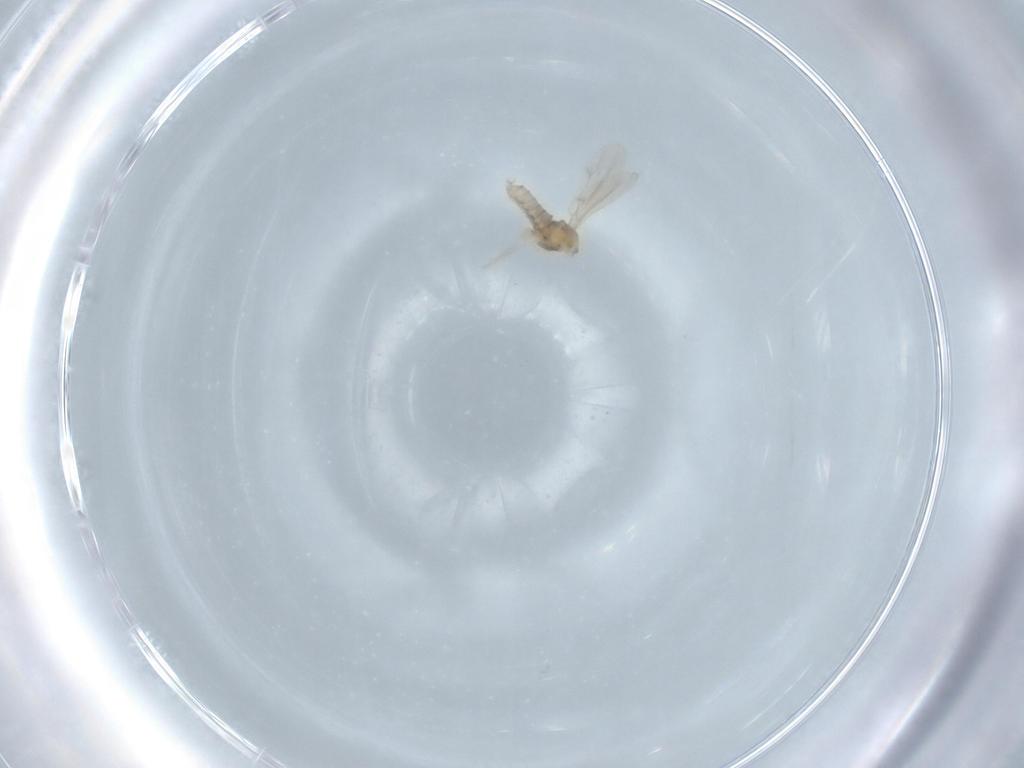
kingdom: Animalia
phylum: Arthropoda
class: Insecta
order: Diptera
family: Cecidomyiidae
